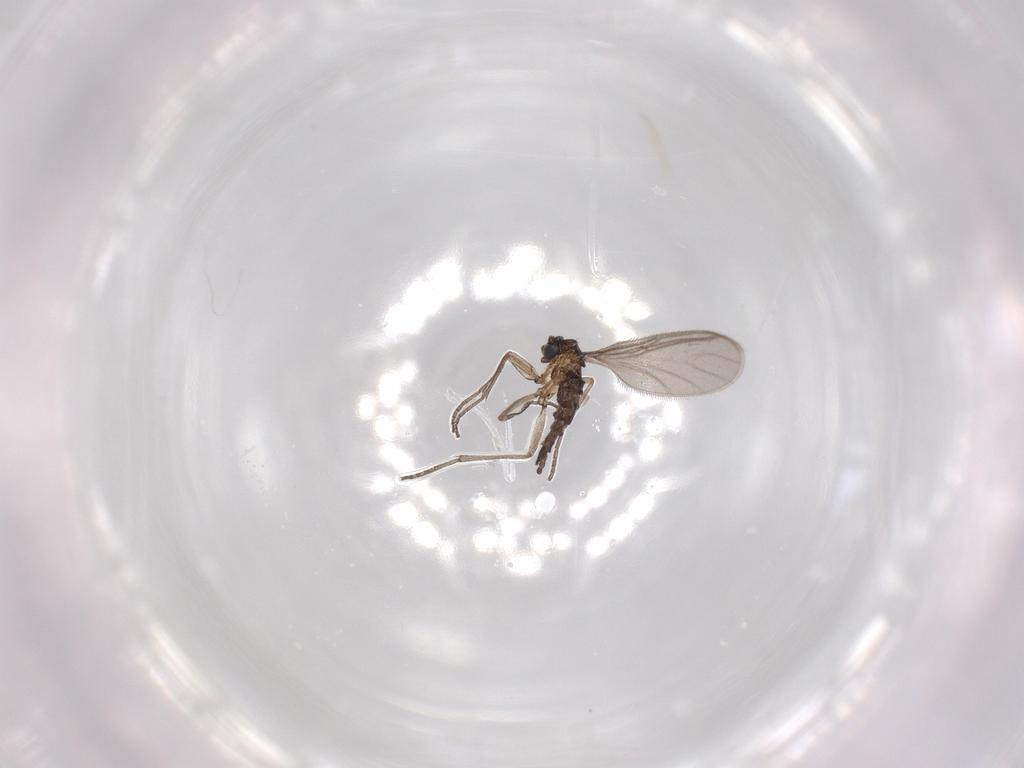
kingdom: Animalia
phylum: Arthropoda
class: Insecta
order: Diptera
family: Sciaridae
